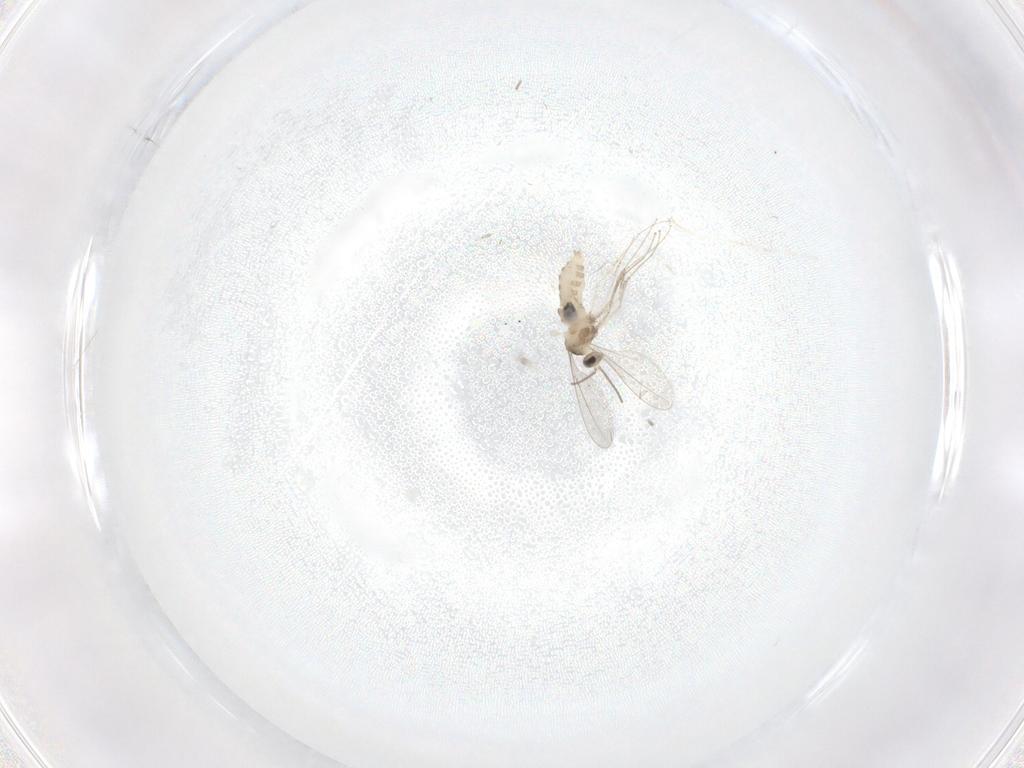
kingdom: Animalia
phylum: Arthropoda
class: Insecta
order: Diptera
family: Cecidomyiidae
